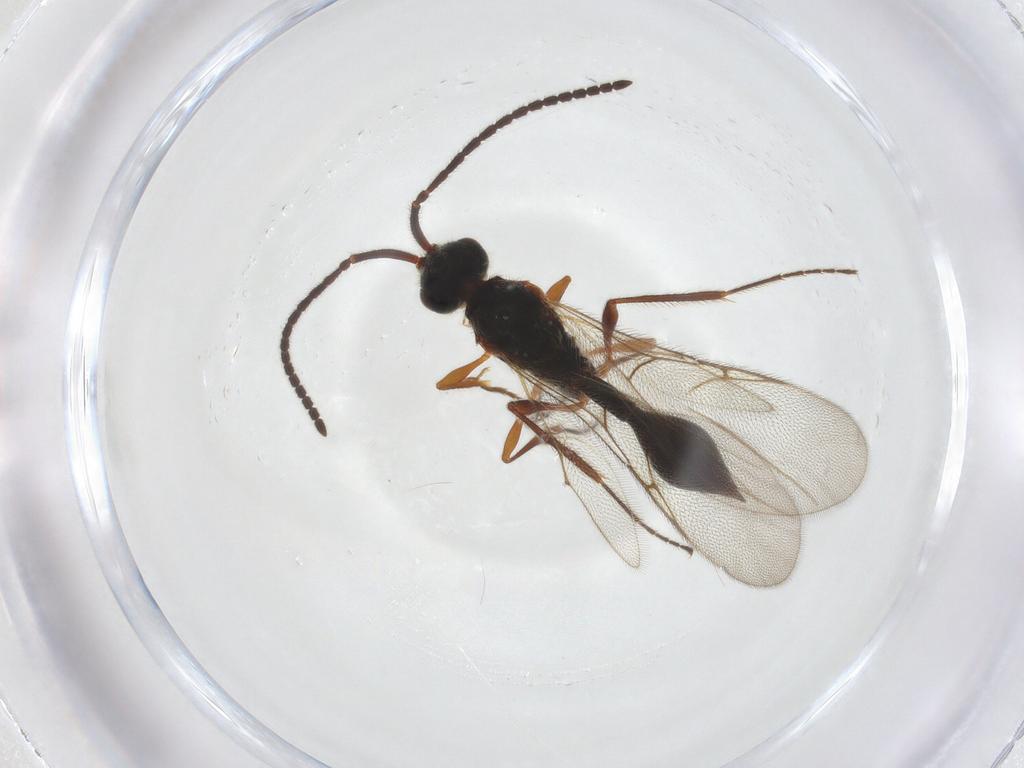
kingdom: Animalia
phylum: Arthropoda
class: Insecta
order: Hymenoptera
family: Diapriidae
